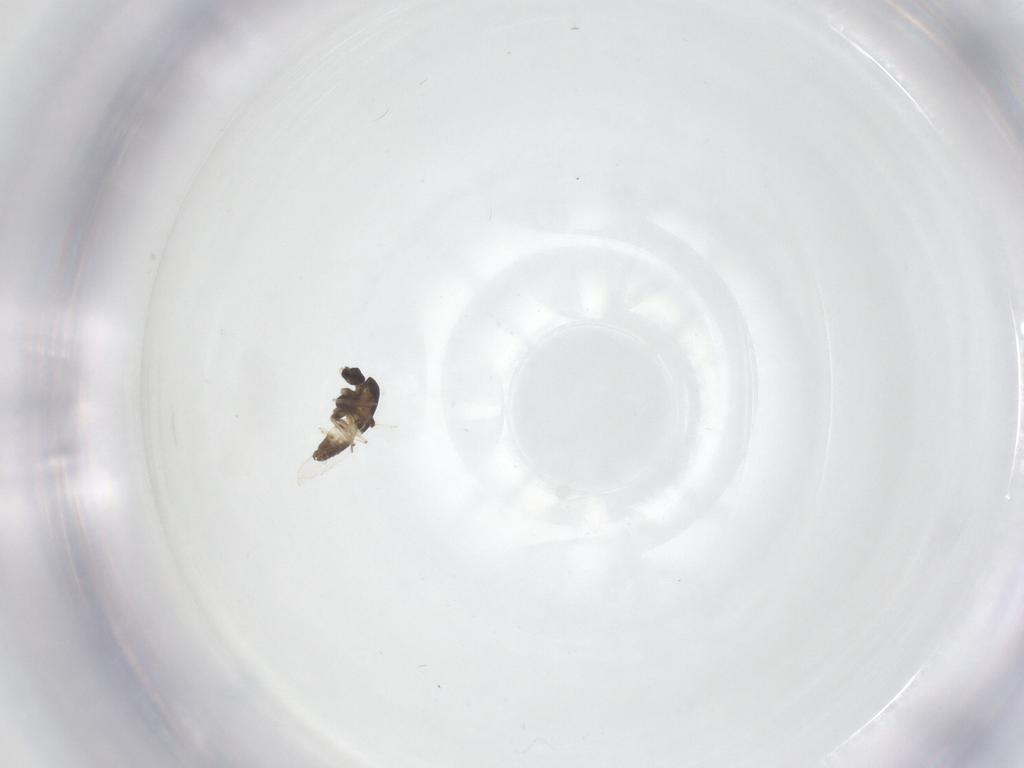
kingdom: Animalia
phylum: Arthropoda
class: Insecta
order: Diptera
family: Chironomidae
